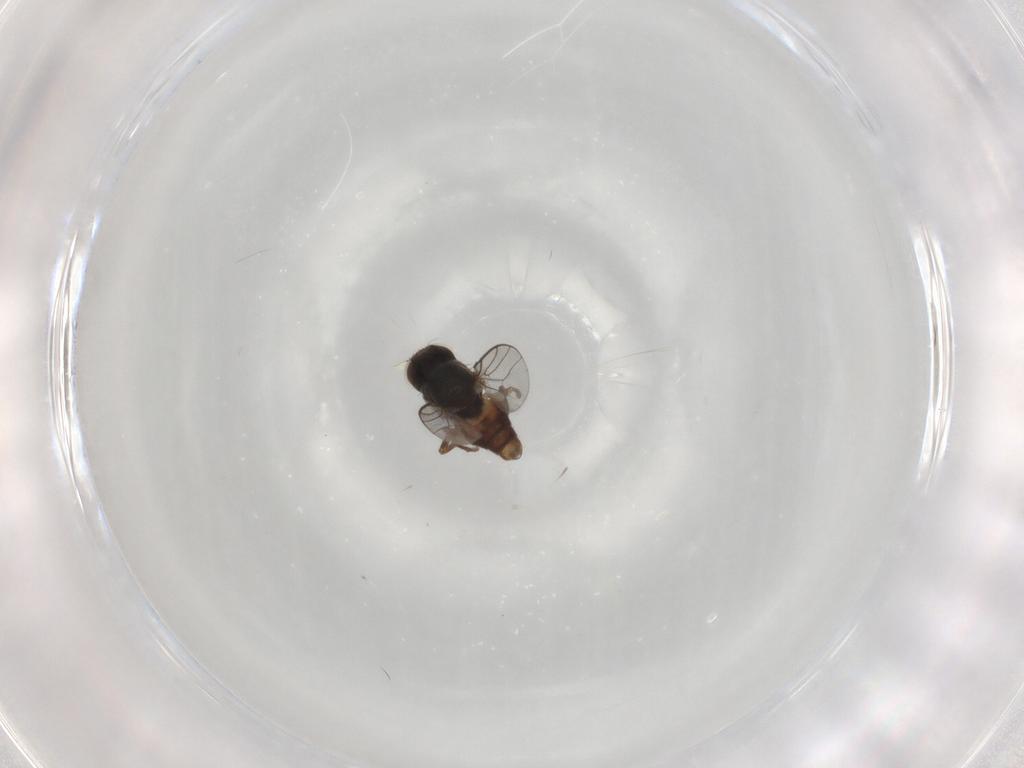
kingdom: Animalia
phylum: Arthropoda
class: Insecta
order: Diptera
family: Chloropidae
